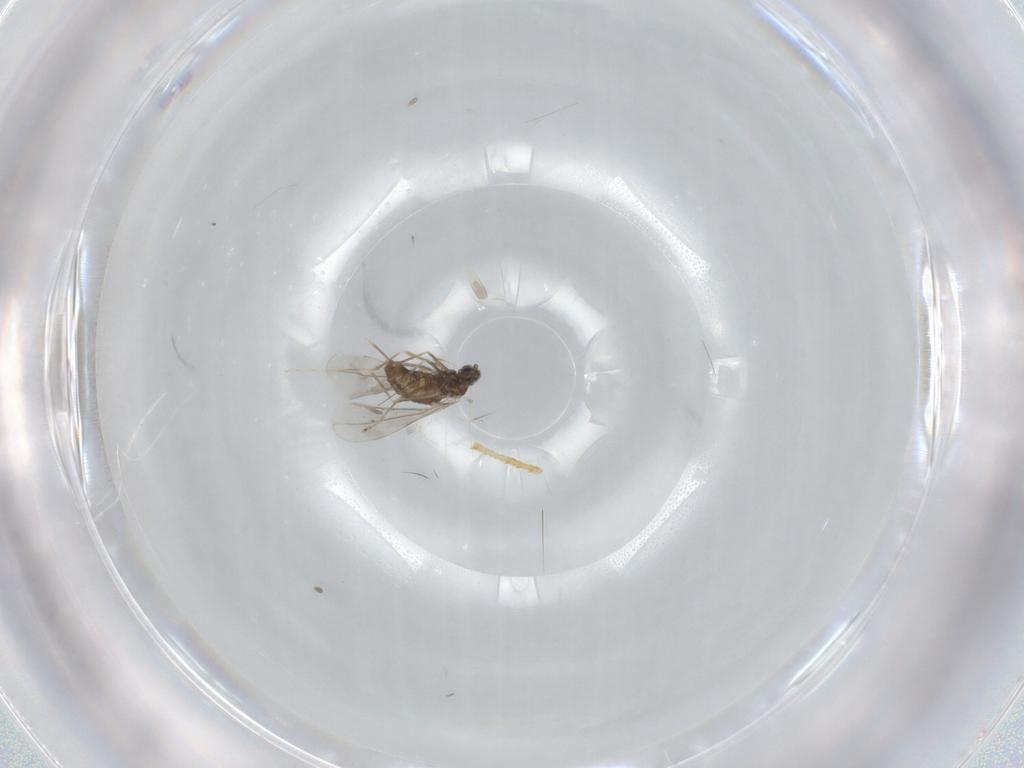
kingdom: Animalia
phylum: Arthropoda
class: Insecta
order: Diptera
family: Cecidomyiidae
